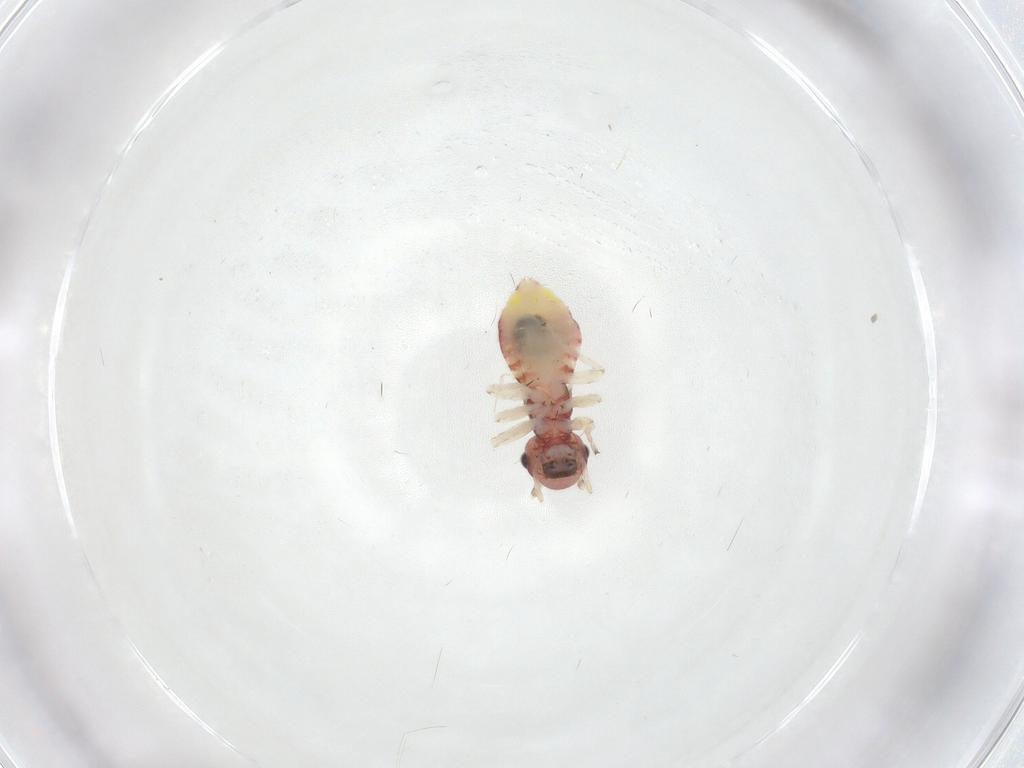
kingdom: Animalia
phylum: Arthropoda
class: Insecta
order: Psocodea
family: Caeciliusidae
